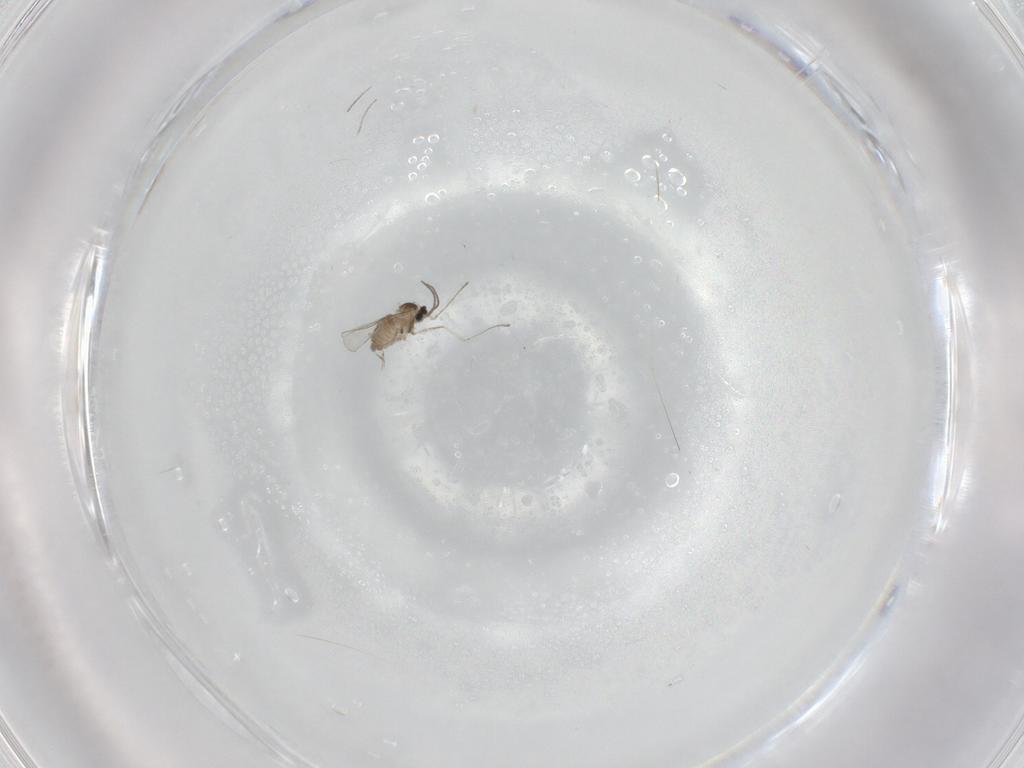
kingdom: Animalia
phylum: Arthropoda
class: Insecta
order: Diptera
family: Cecidomyiidae
